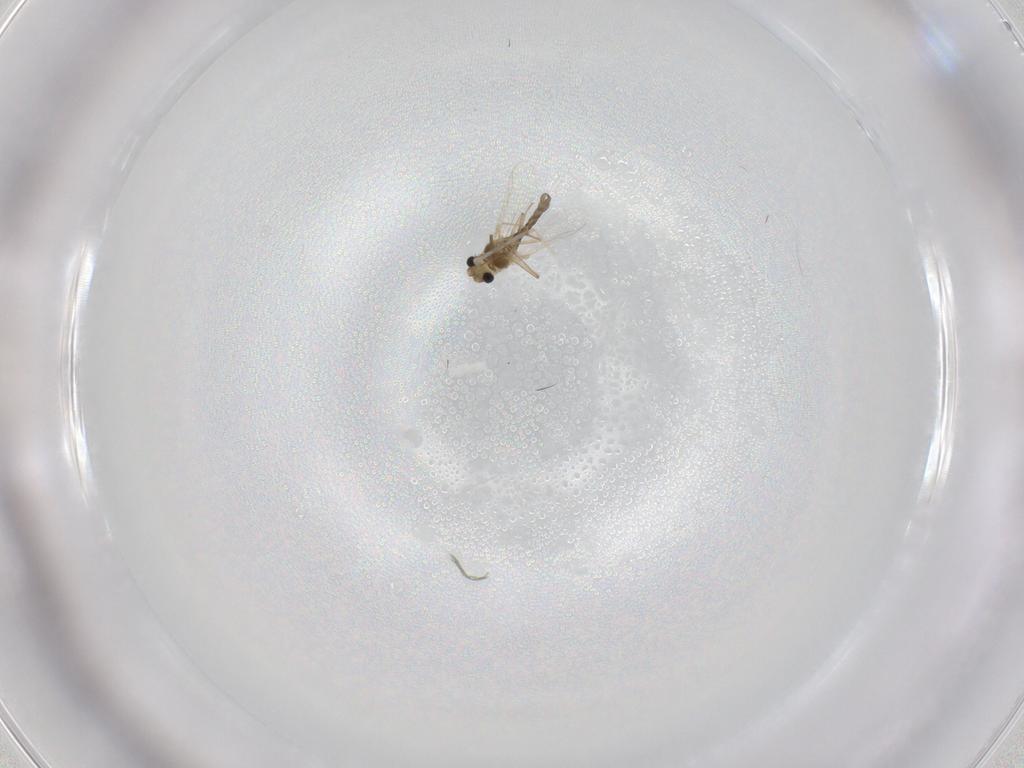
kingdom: Animalia
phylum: Arthropoda
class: Insecta
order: Diptera
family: Chironomidae
